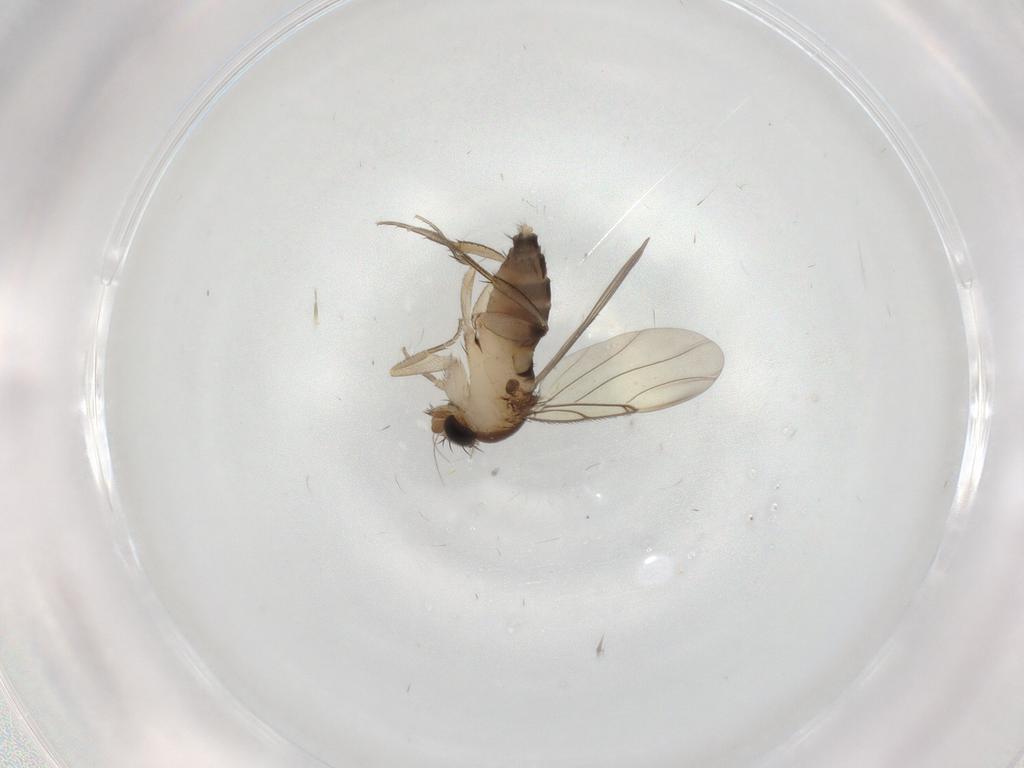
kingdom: Animalia
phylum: Arthropoda
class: Insecta
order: Diptera
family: Phoridae
